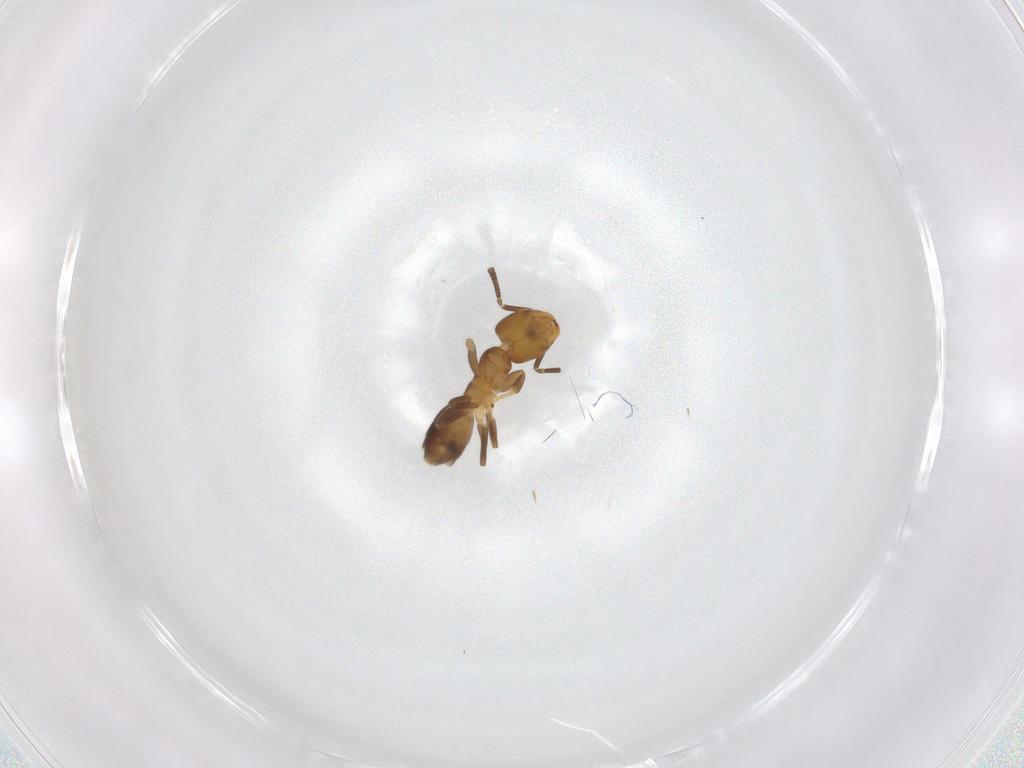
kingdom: Animalia
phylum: Arthropoda
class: Insecta
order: Hymenoptera
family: Formicidae
